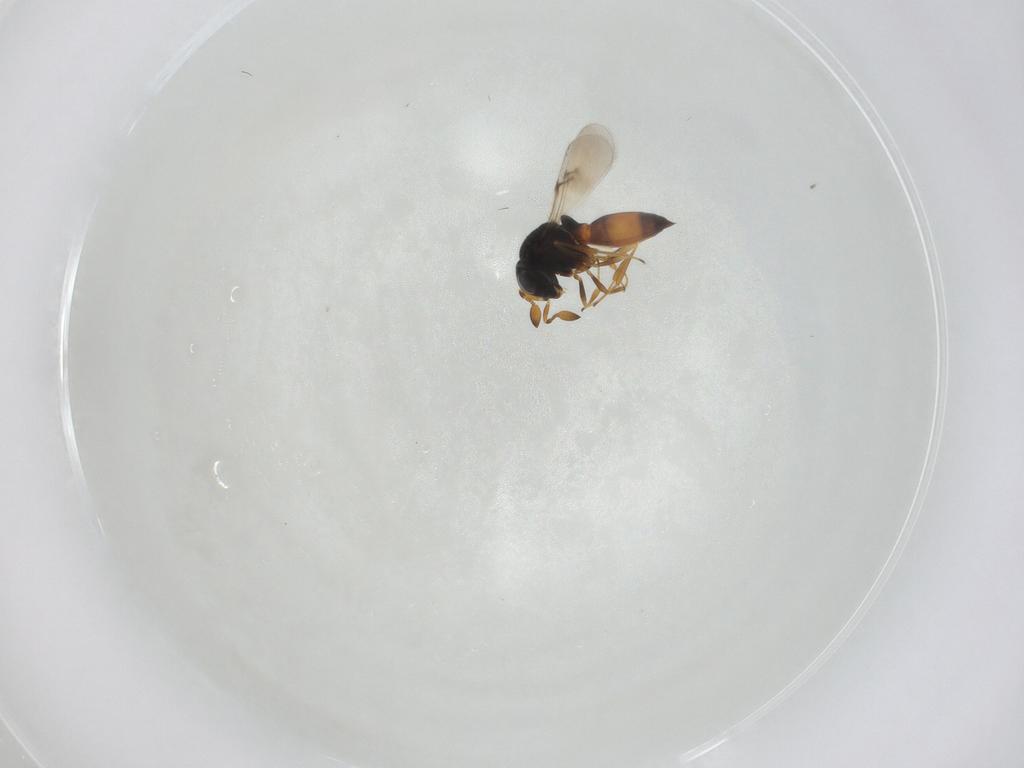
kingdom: Animalia
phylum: Arthropoda
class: Insecta
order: Hymenoptera
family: Scelionidae
